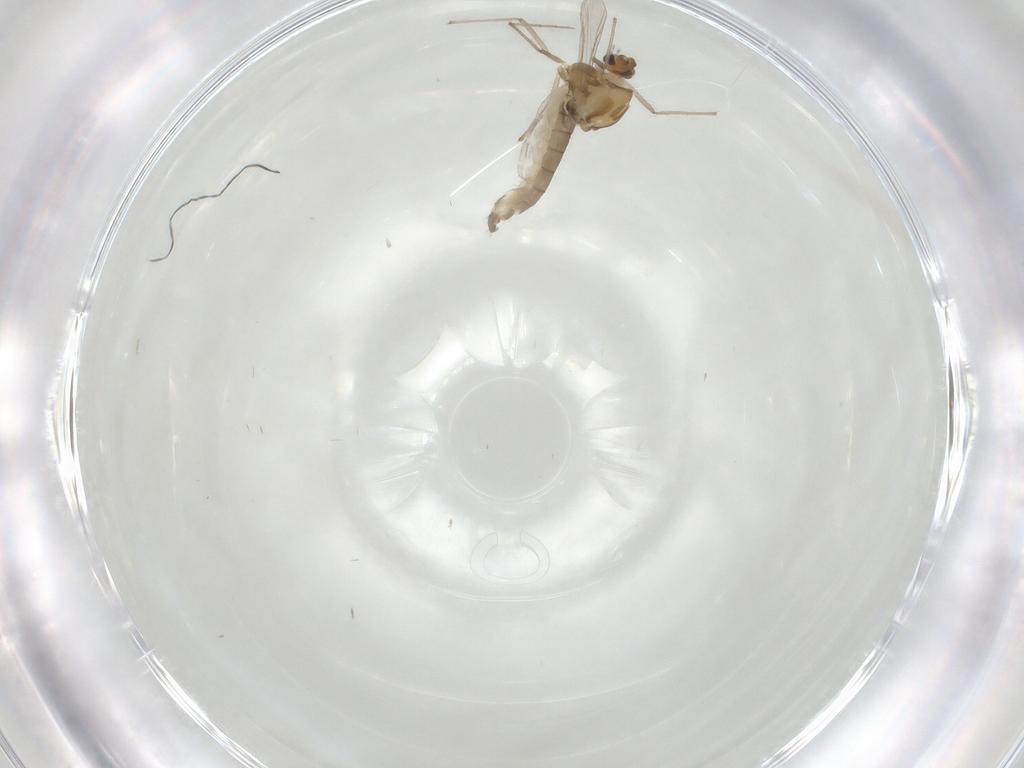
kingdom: Animalia
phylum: Arthropoda
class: Insecta
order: Diptera
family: Chironomidae
